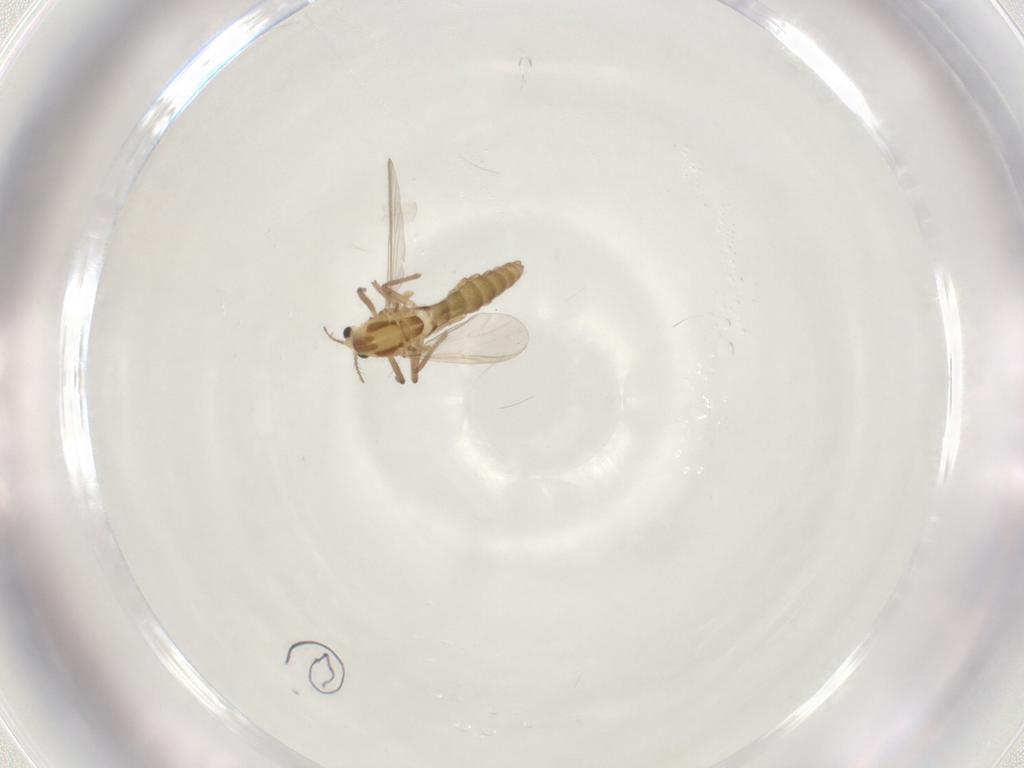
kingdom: Animalia
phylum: Arthropoda
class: Insecta
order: Diptera
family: Chironomidae
